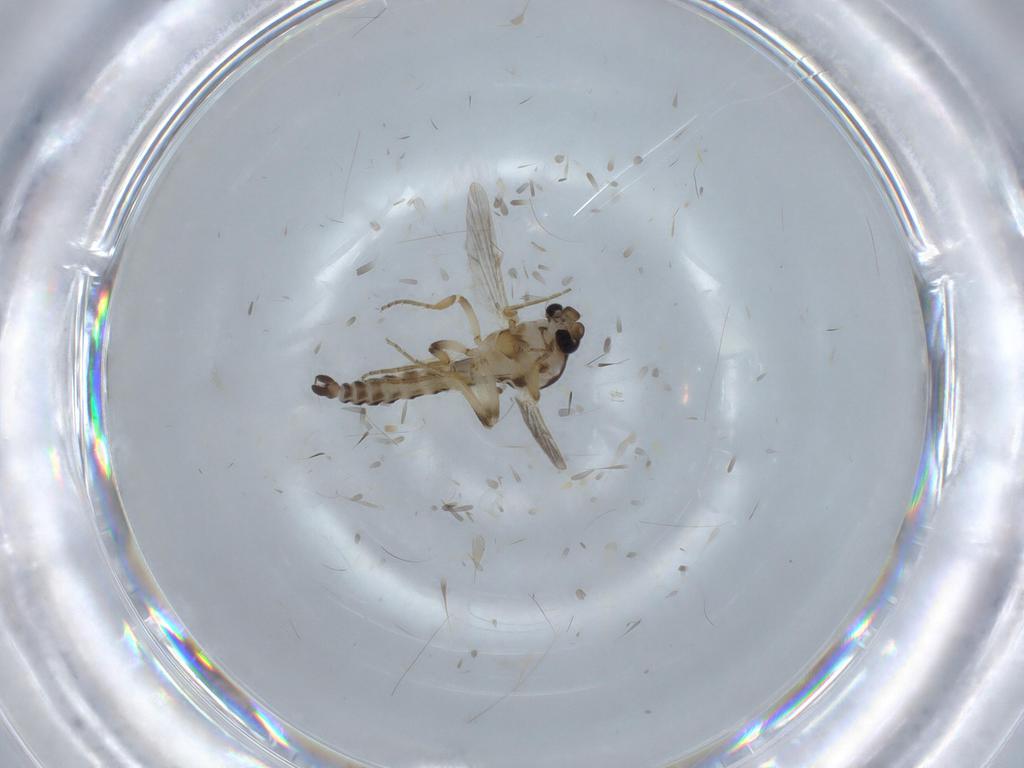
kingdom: Animalia
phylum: Arthropoda
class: Insecta
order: Diptera
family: Ceratopogonidae
